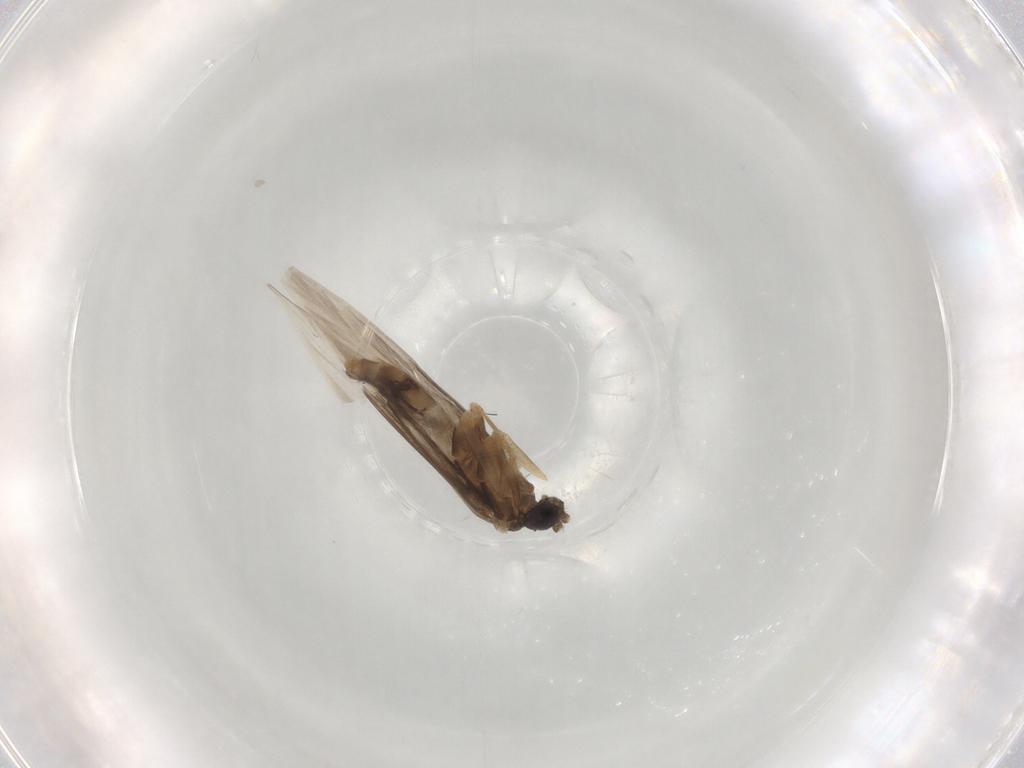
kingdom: Animalia
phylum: Arthropoda
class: Insecta
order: Trichoptera
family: Hydroptilidae
